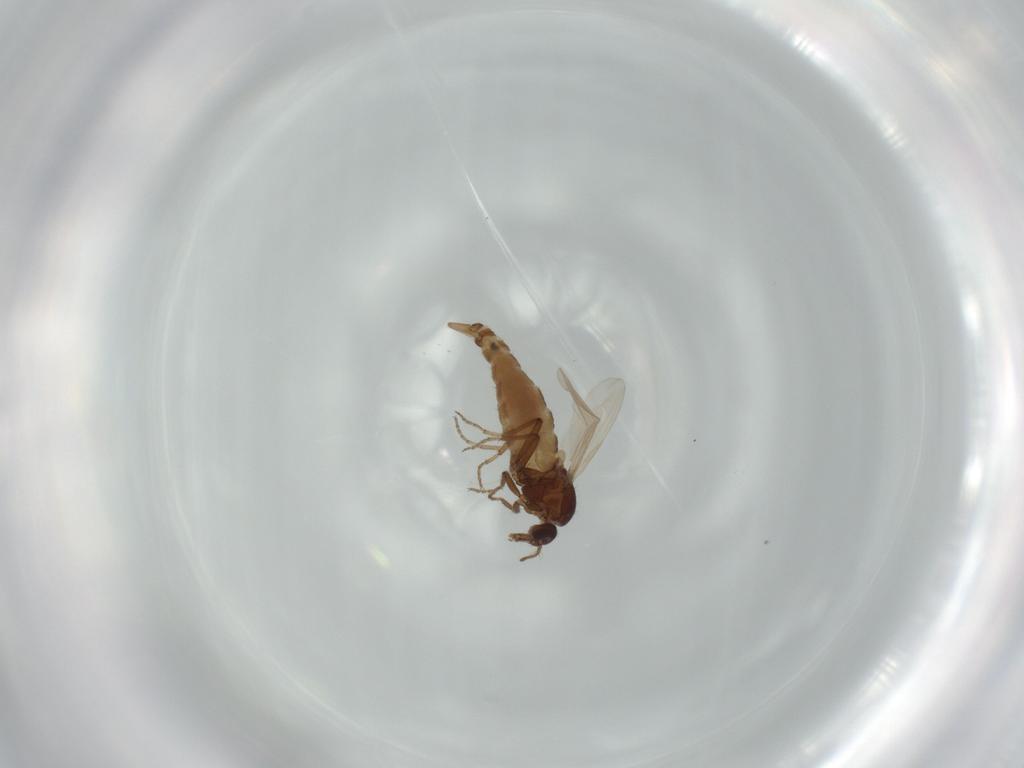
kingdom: Animalia
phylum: Arthropoda
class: Insecta
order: Diptera
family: Ceratopogonidae
